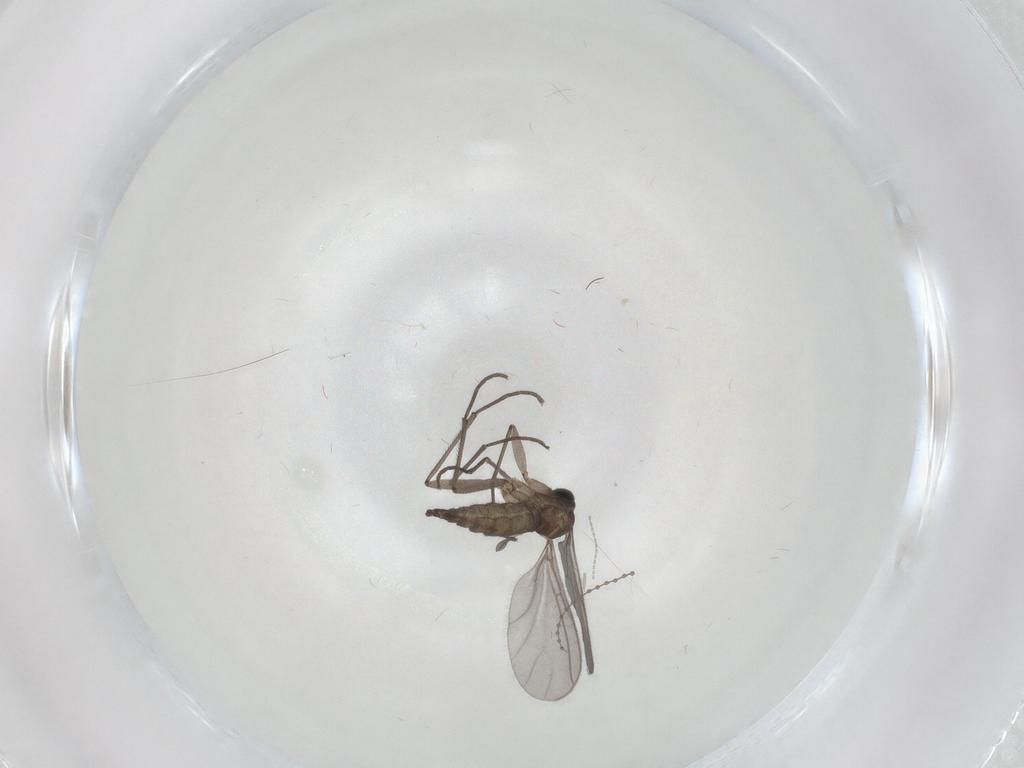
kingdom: Animalia
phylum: Arthropoda
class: Insecta
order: Diptera
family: Sciaridae
